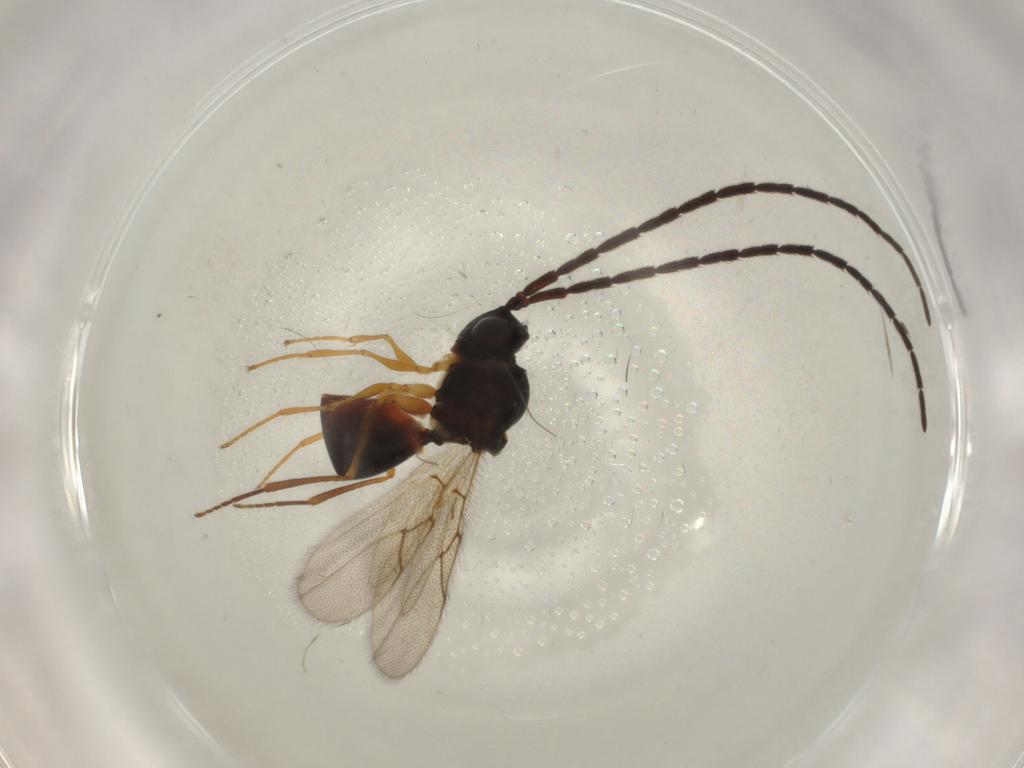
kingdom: Animalia
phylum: Arthropoda
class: Insecta
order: Hymenoptera
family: Figitidae
